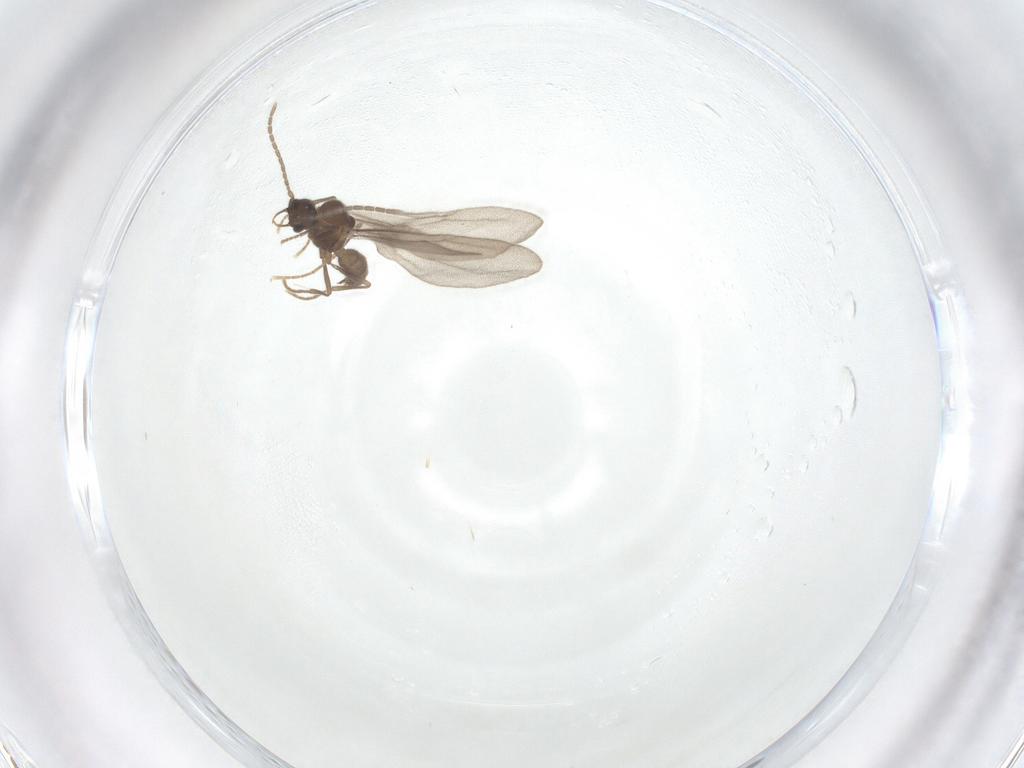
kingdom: Animalia
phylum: Arthropoda
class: Insecta
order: Hymenoptera
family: Formicidae
